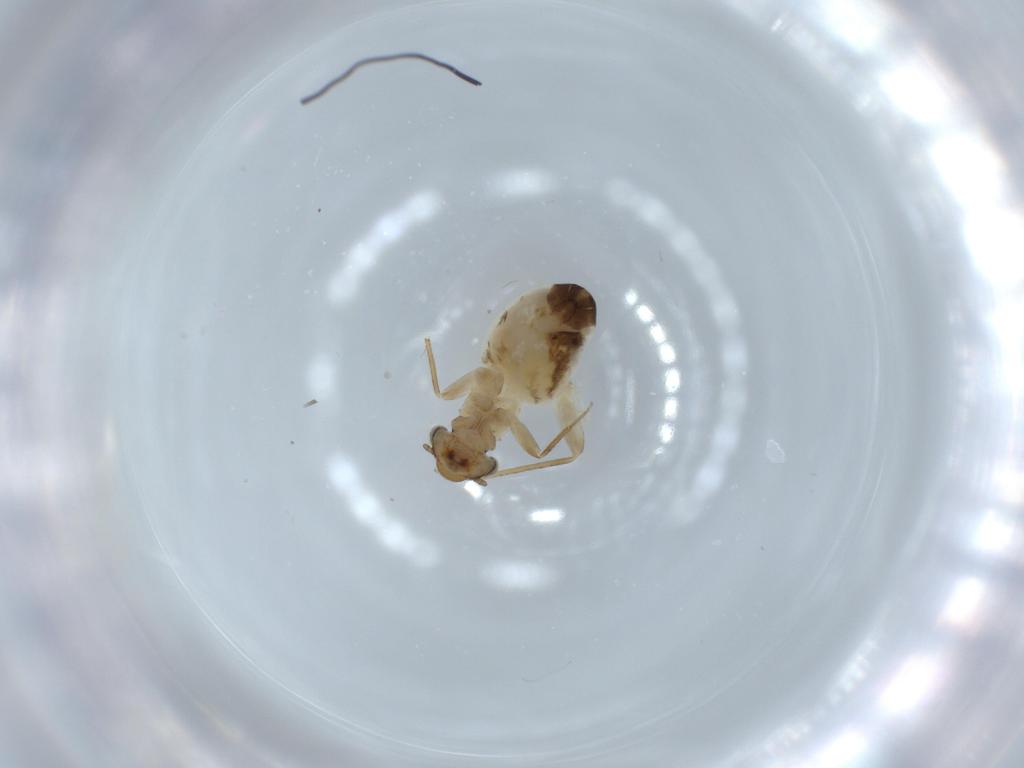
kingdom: Animalia
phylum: Arthropoda
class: Insecta
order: Psocodea
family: Lepidopsocidae
